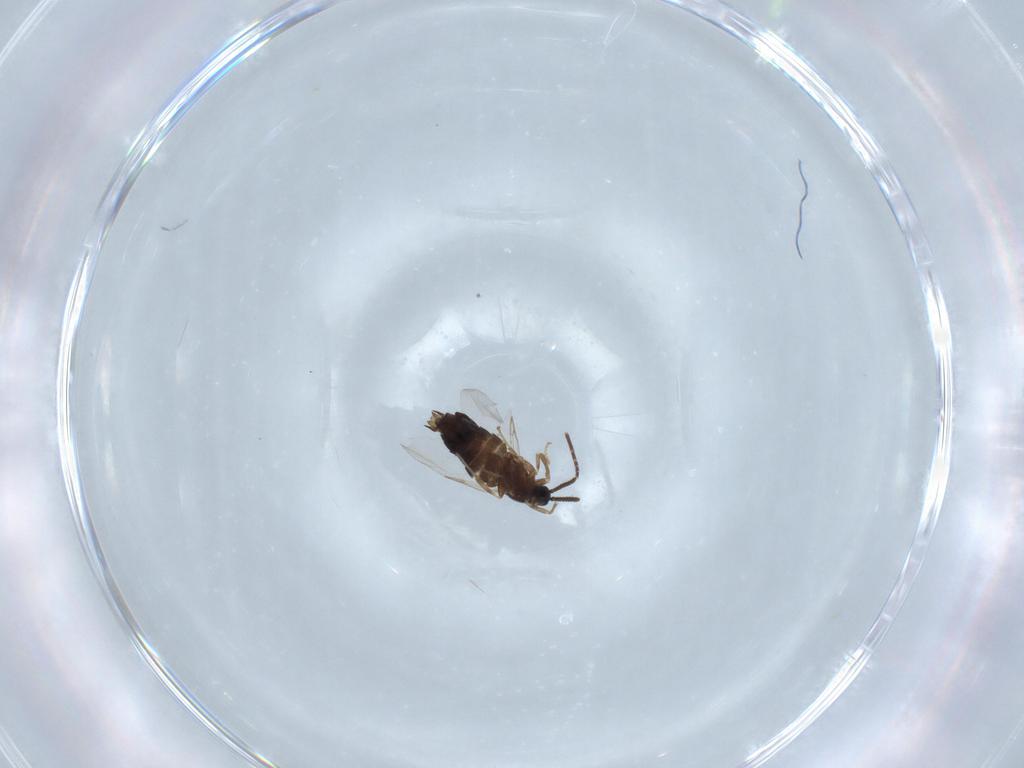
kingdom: Animalia
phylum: Arthropoda
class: Insecta
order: Diptera
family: Ceratopogonidae
